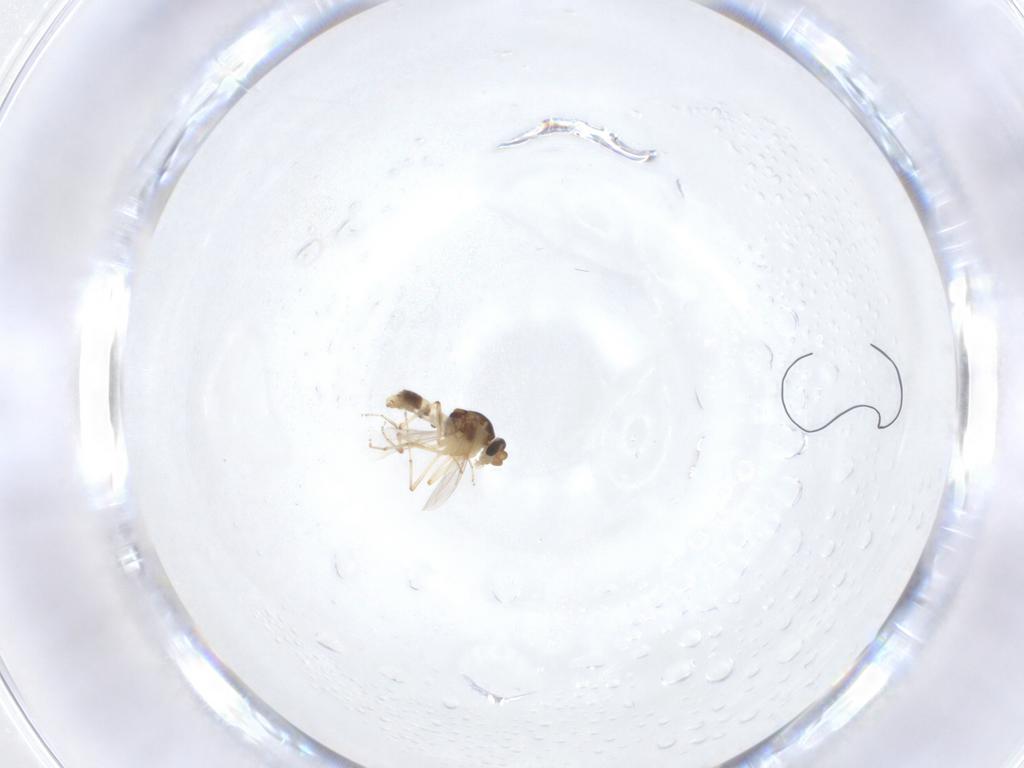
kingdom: Animalia
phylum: Arthropoda
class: Insecta
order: Diptera
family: Ceratopogonidae
